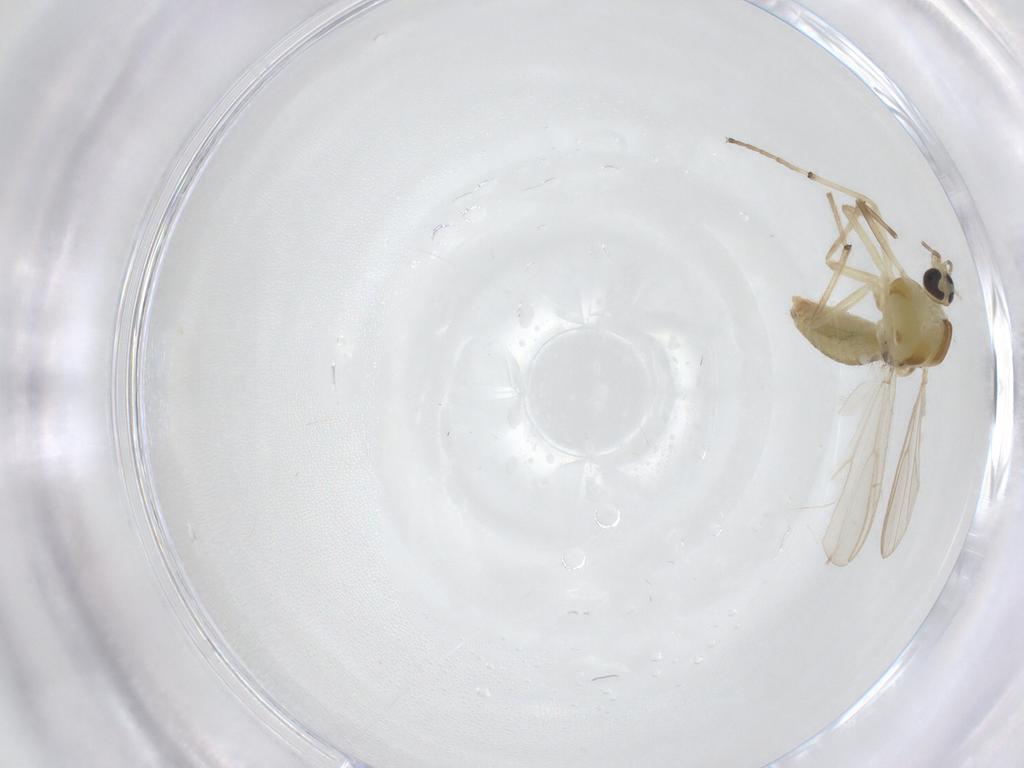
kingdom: Animalia
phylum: Arthropoda
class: Insecta
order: Diptera
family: Chironomidae
